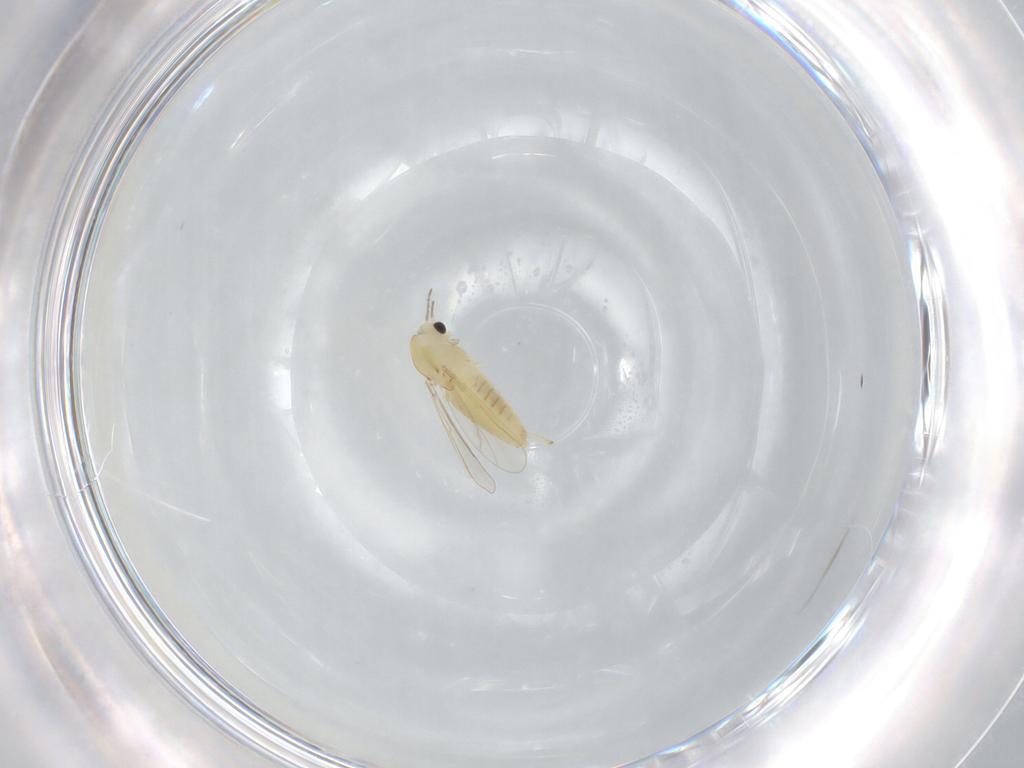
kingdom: Animalia
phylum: Arthropoda
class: Insecta
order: Diptera
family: Chironomidae
